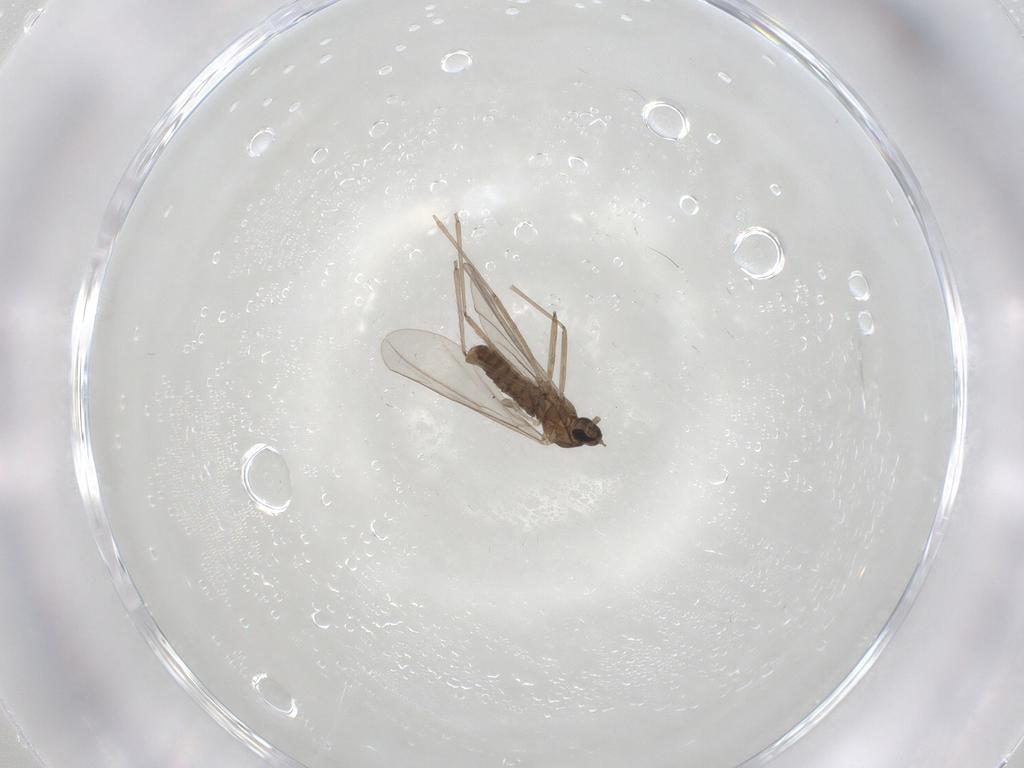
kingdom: Animalia
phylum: Arthropoda
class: Insecta
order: Diptera
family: Sciaridae
